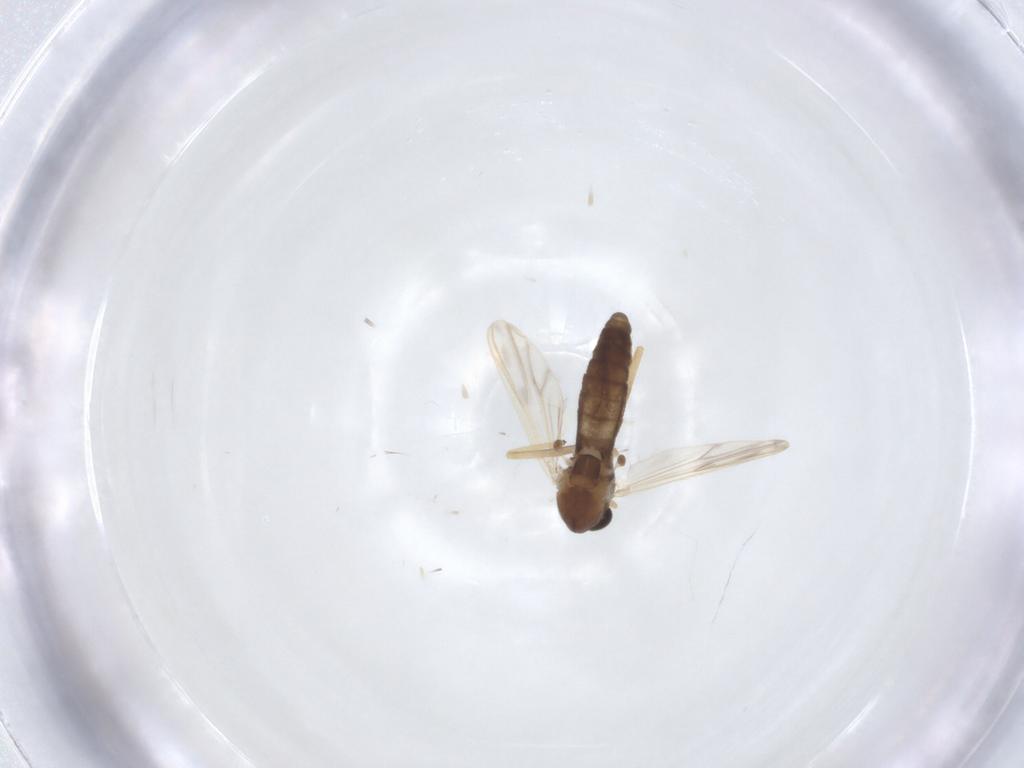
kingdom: Animalia
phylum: Arthropoda
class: Insecta
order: Diptera
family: Chironomidae
